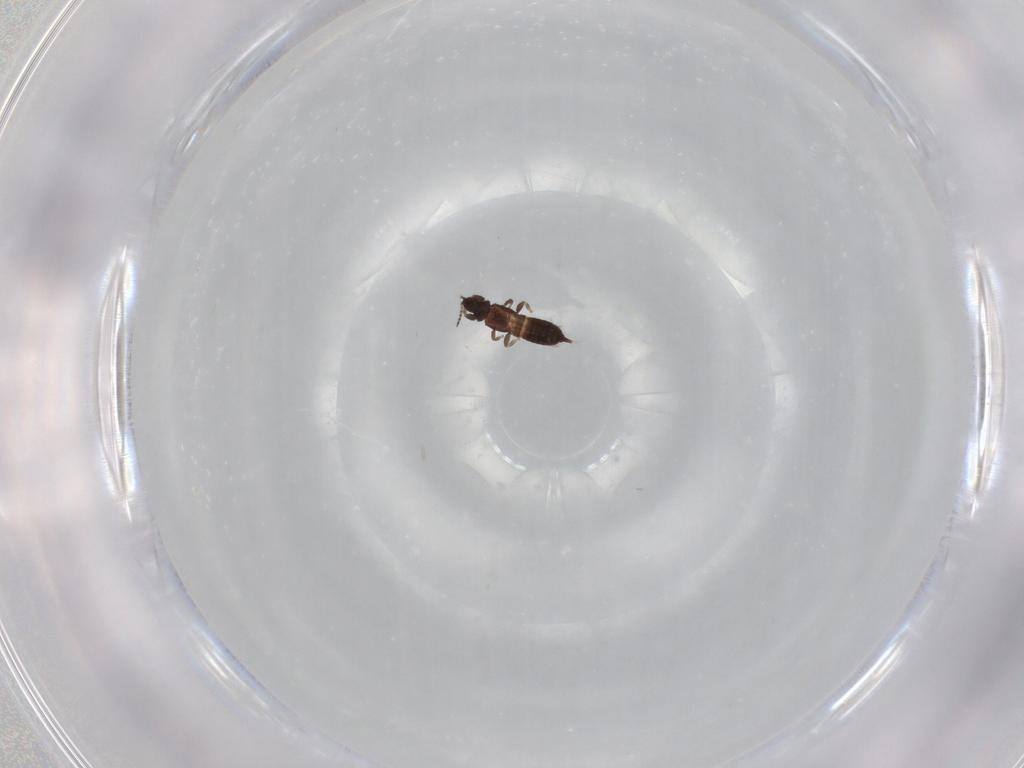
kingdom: Animalia
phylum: Arthropoda
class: Insecta
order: Thysanoptera
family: Phlaeothripidae
